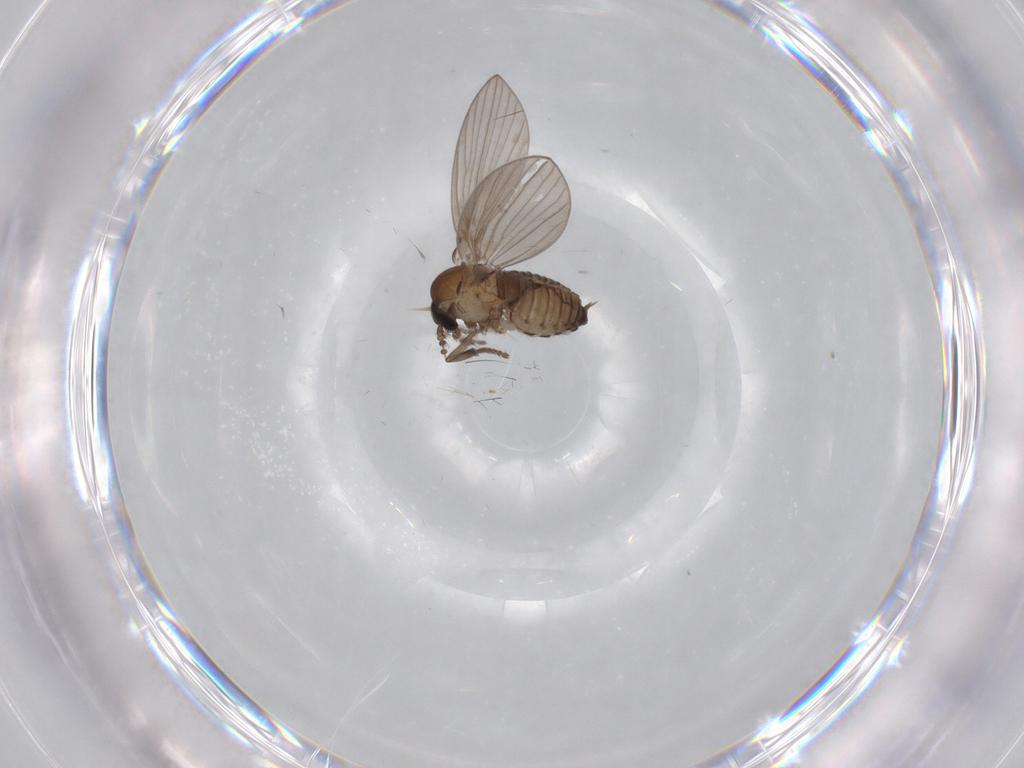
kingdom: Animalia
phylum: Arthropoda
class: Insecta
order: Diptera
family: Psychodidae
